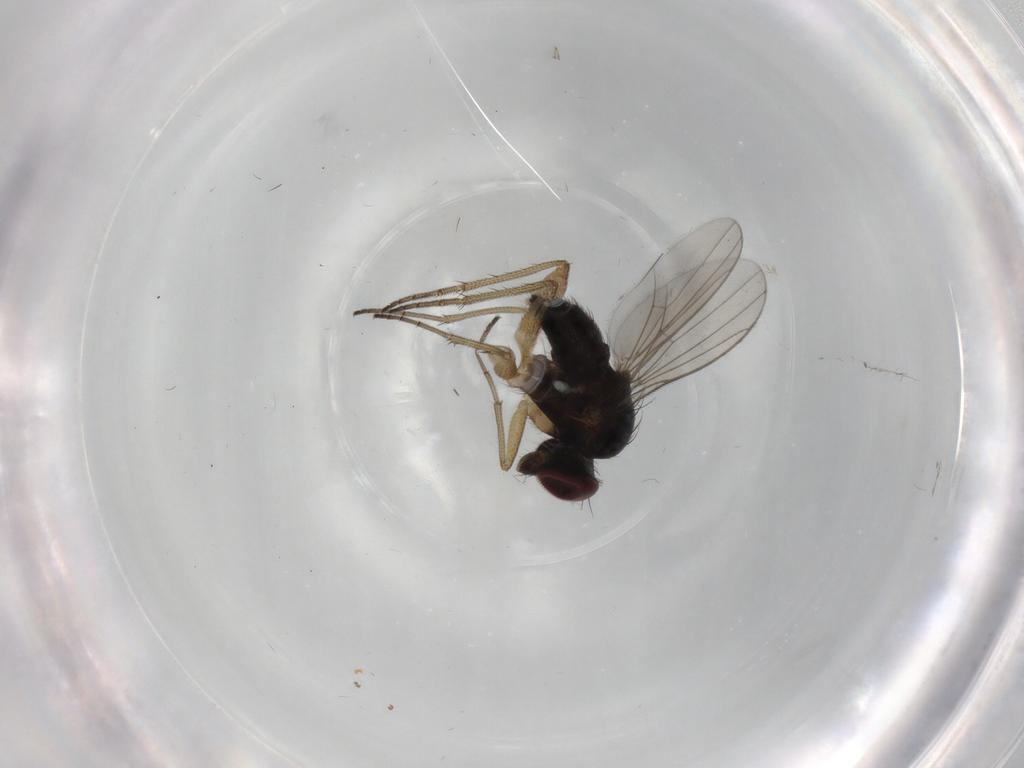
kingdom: Animalia
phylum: Arthropoda
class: Insecta
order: Diptera
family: Dolichopodidae
